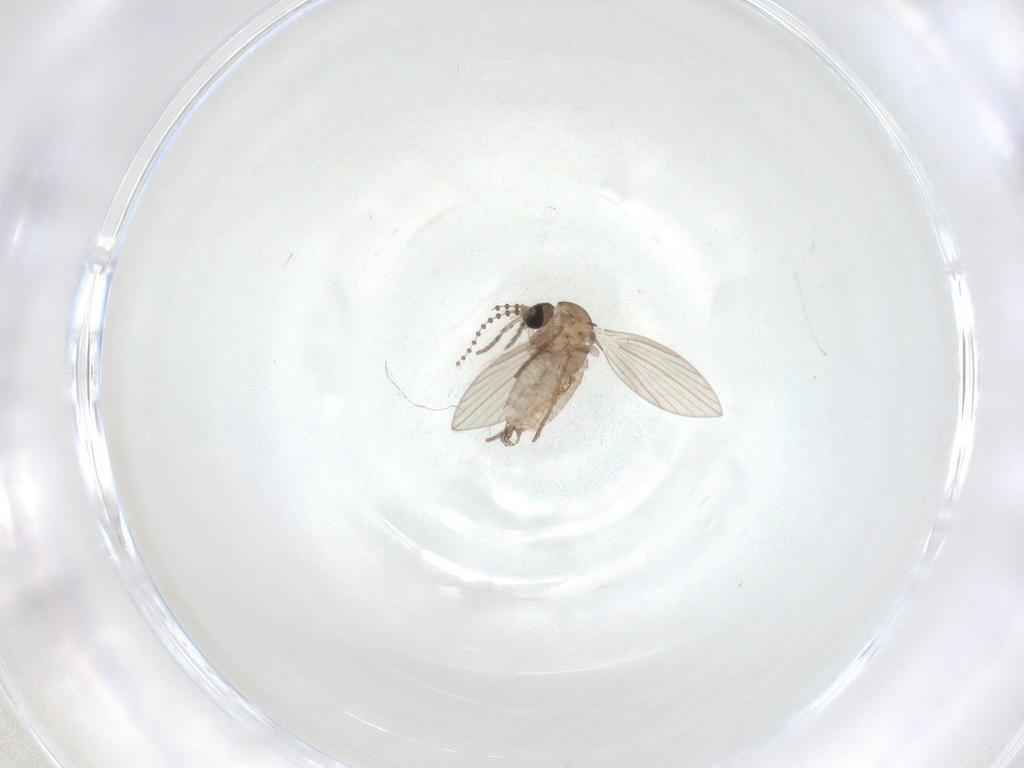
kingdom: Animalia
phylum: Arthropoda
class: Insecta
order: Diptera
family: Psychodidae
